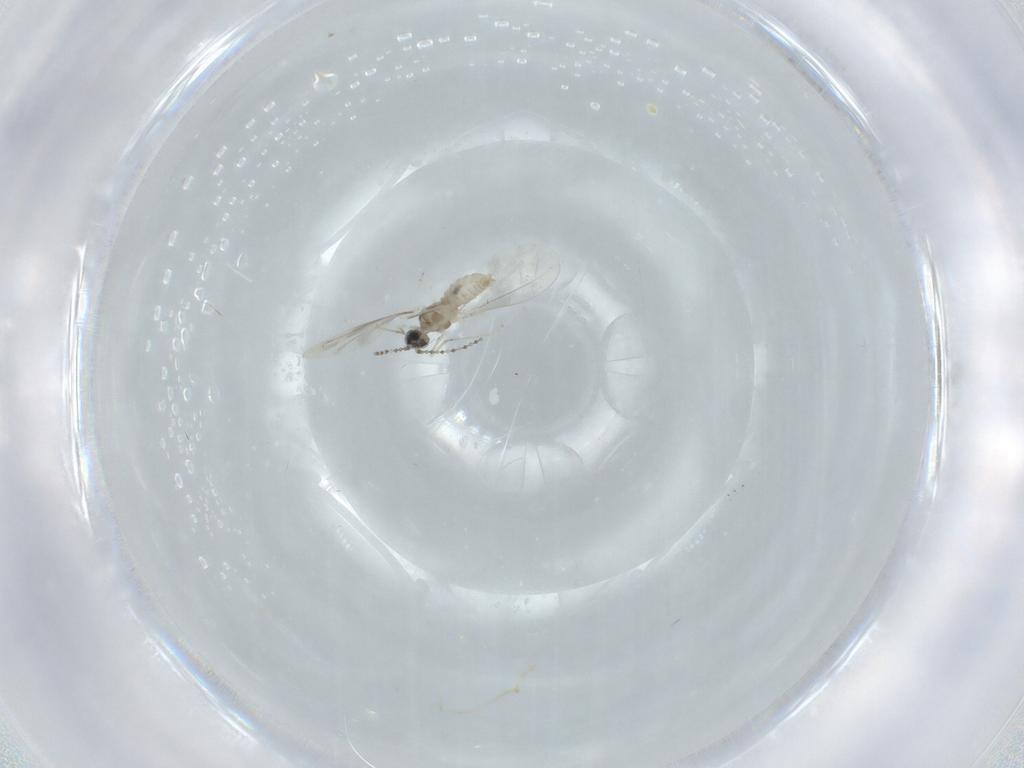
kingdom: Animalia
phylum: Arthropoda
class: Insecta
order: Diptera
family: Cecidomyiidae
